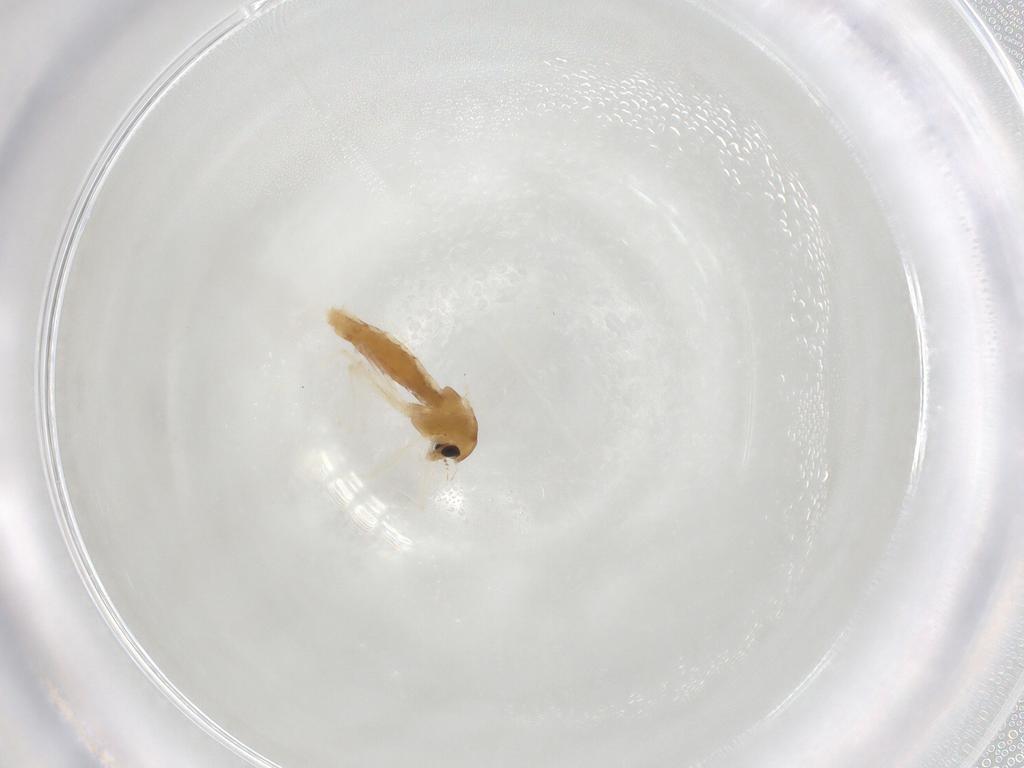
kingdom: Animalia
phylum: Arthropoda
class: Insecta
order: Diptera
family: Chironomidae
